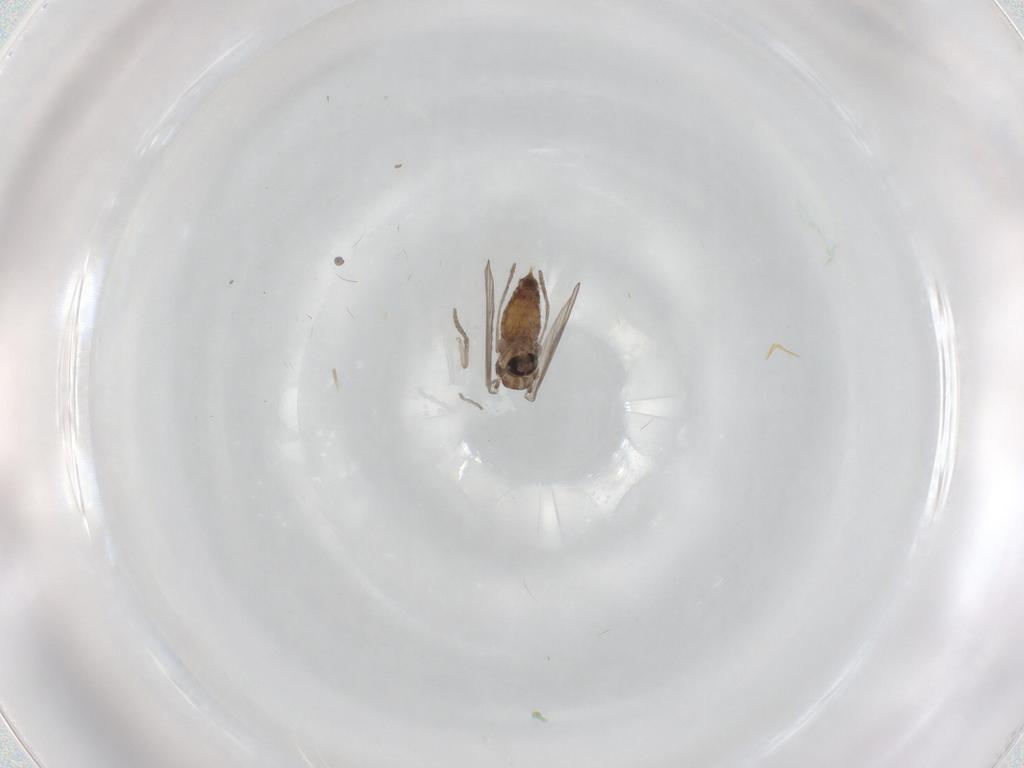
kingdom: Animalia
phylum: Arthropoda
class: Insecta
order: Diptera
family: Psychodidae
